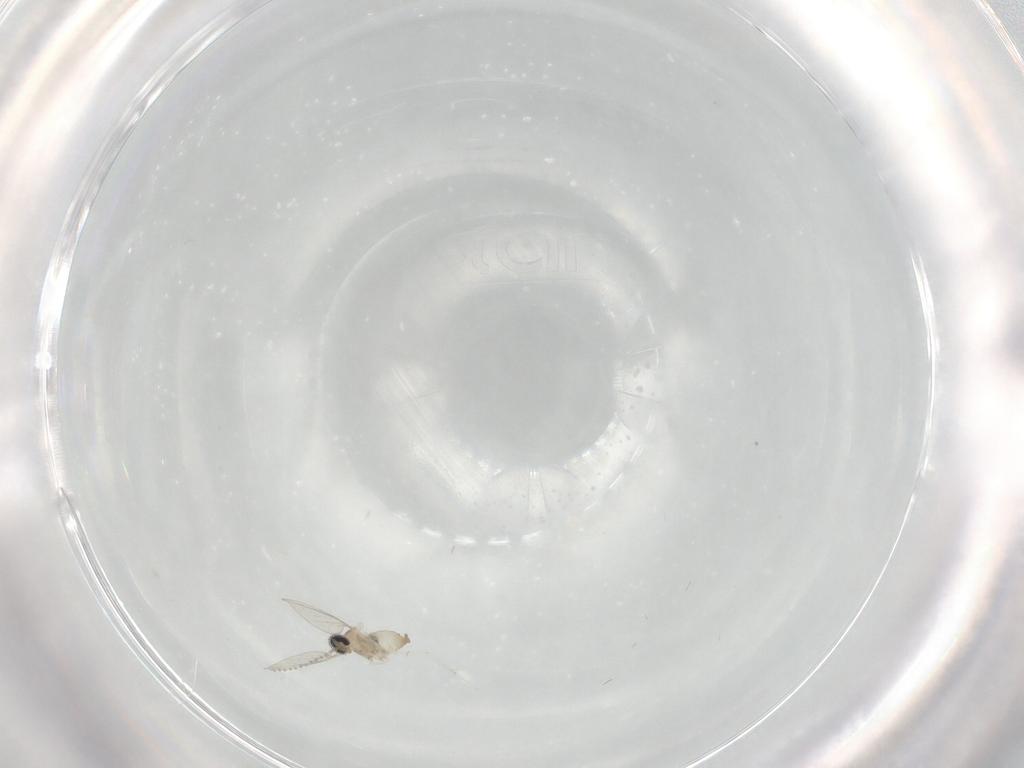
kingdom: Animalia
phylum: Arthropoda
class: Insecta
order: Diptera
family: Cecidomyiidae
